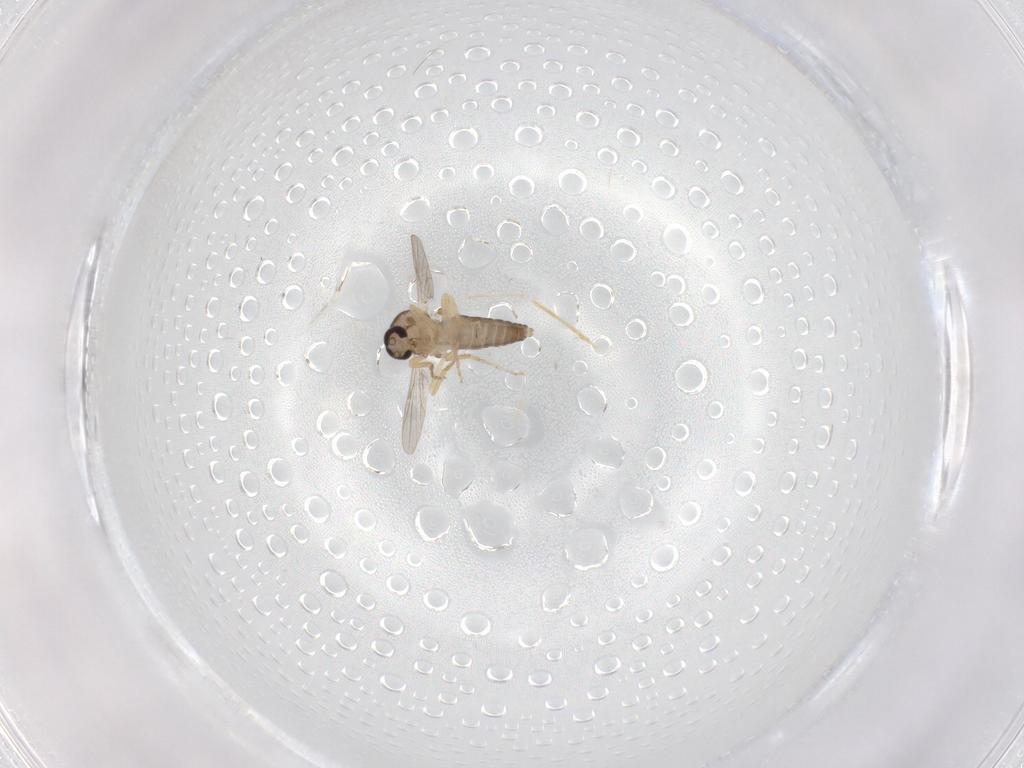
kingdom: Animalia
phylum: Arthropoda
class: Insecta
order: Diptera
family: Ceratopogonidae
